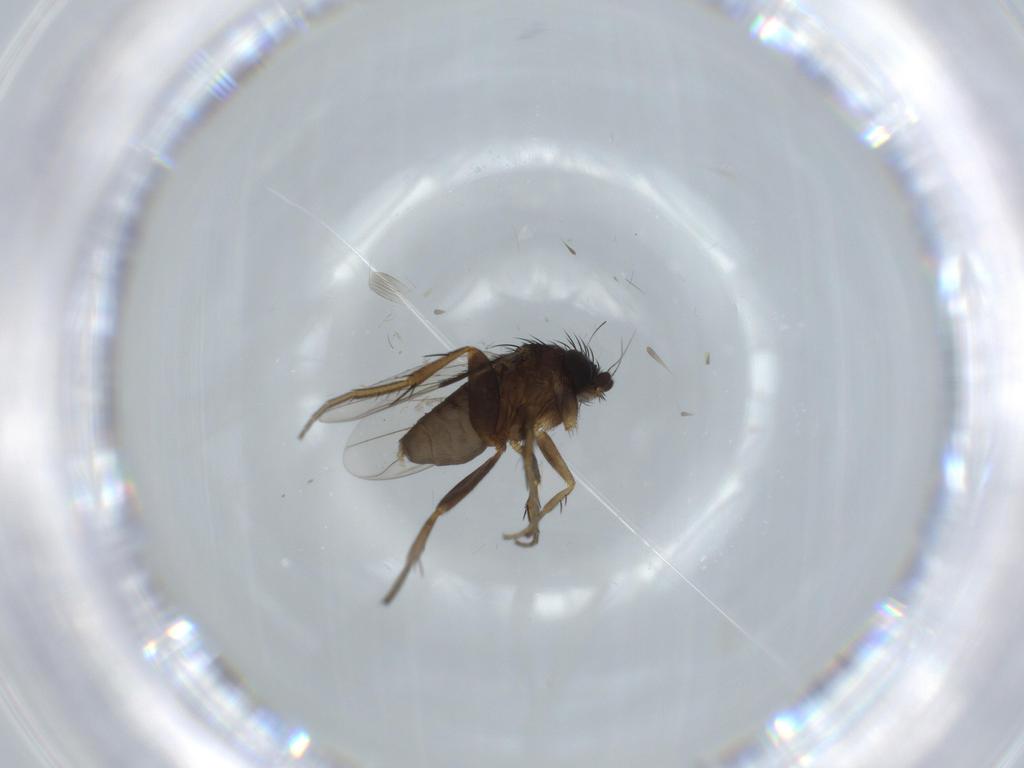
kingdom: Animalia
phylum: Arthropoda
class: Insecta
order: Diptera
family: Phoridae
